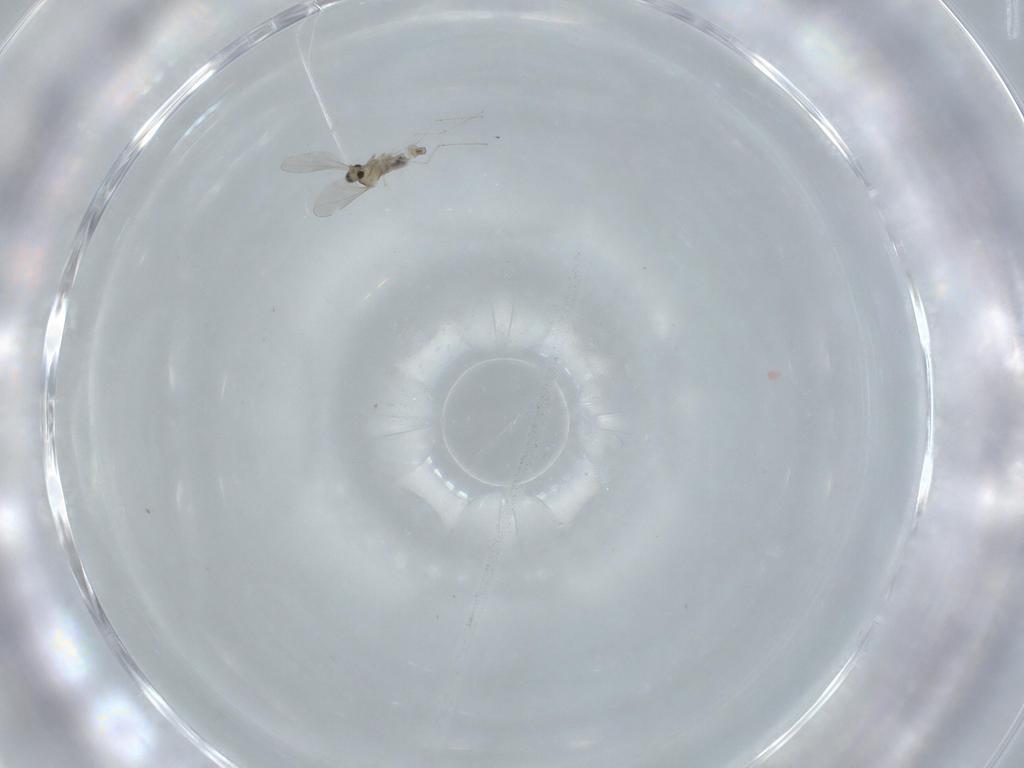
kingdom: Animalia
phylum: Arthropoda
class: Insecta
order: Diptera
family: Cecidomyiidae
